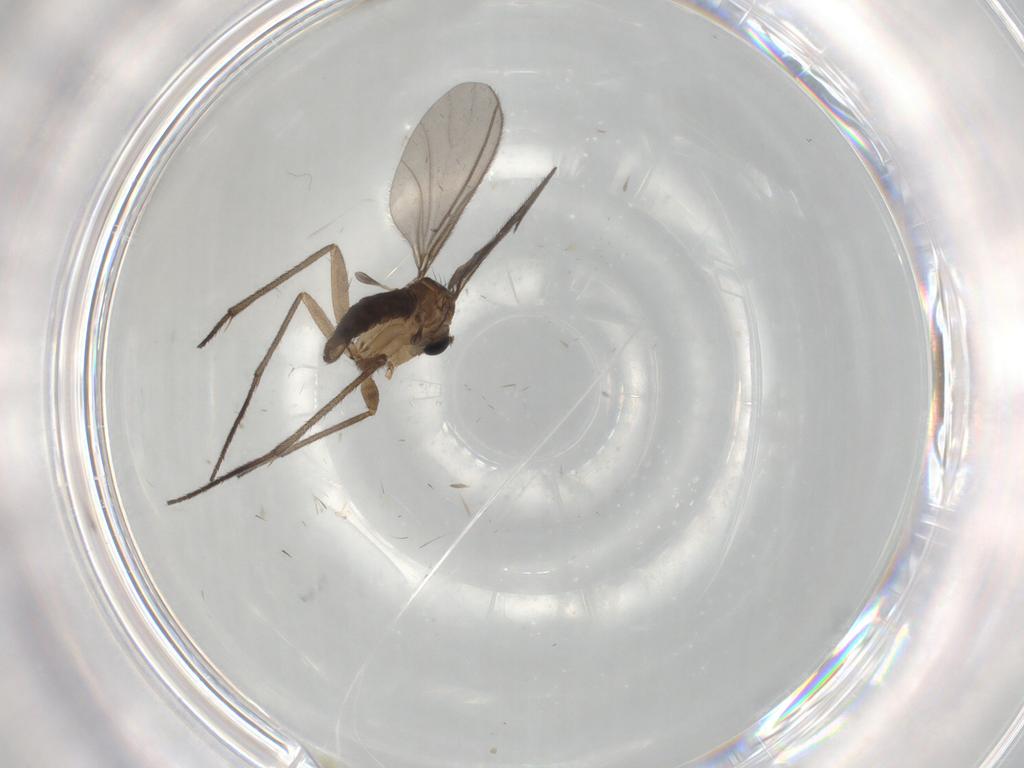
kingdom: Animalia
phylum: Arthropoda
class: Insecta
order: Diptera
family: Sciaridae
